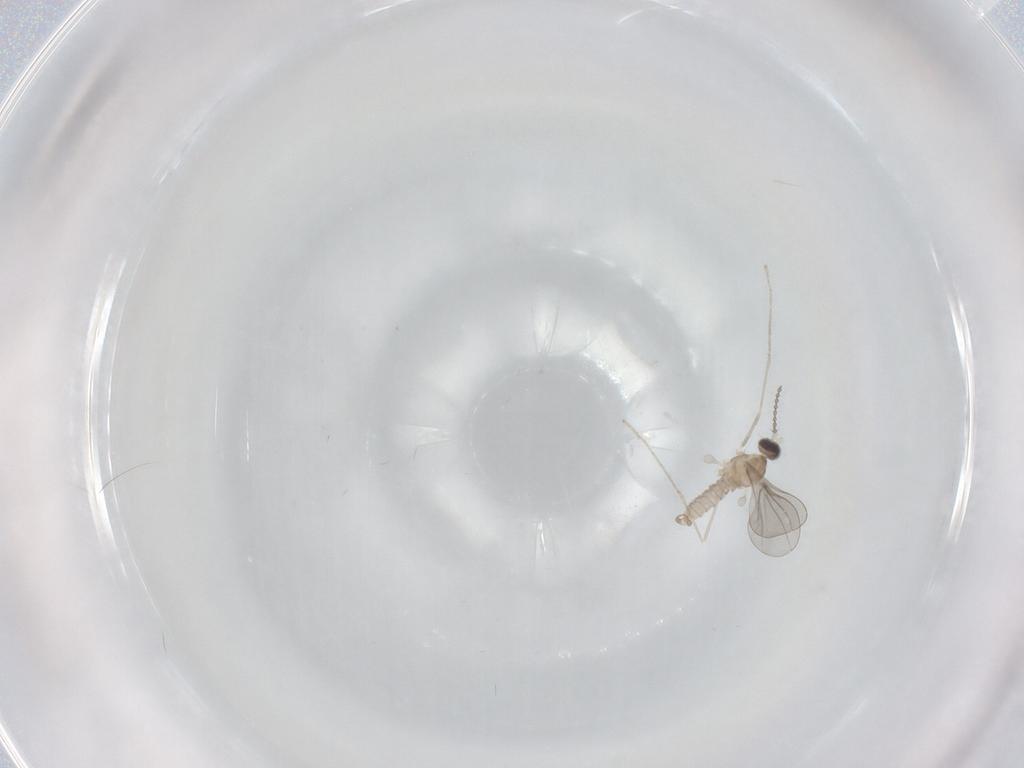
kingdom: Animalia
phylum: Arthropoda
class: Insecta
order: Diptera
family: Cecidomyiidae
